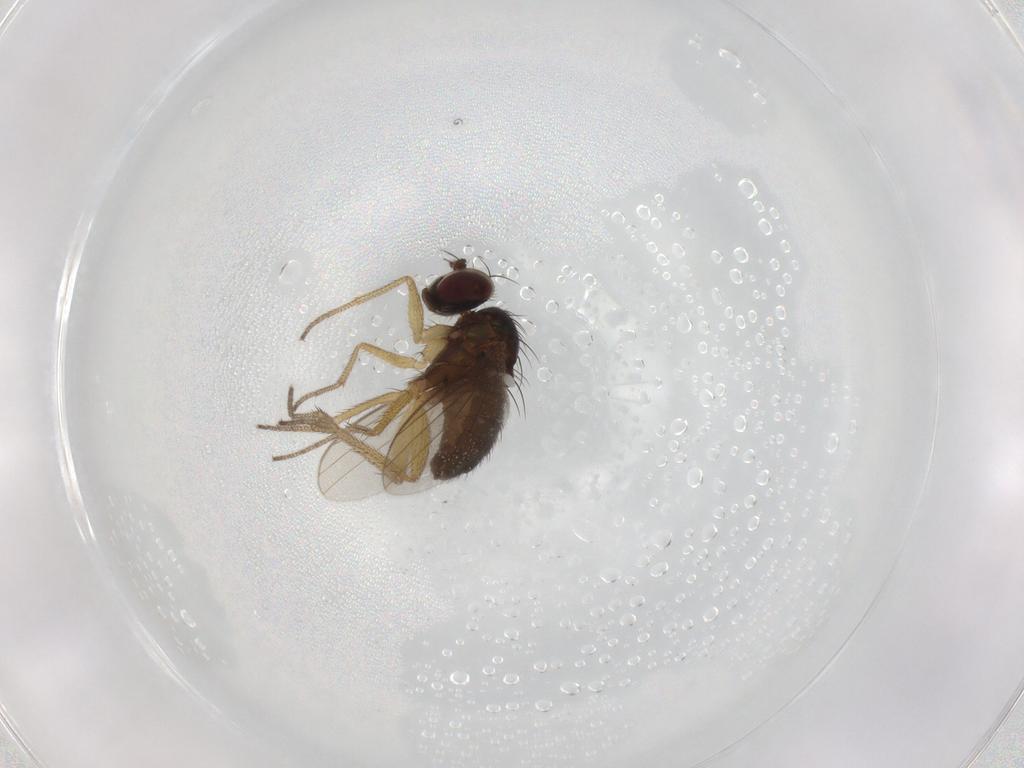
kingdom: Animalia
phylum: Arthropoda
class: Insecta
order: Diptera
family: Dolichopodidae
